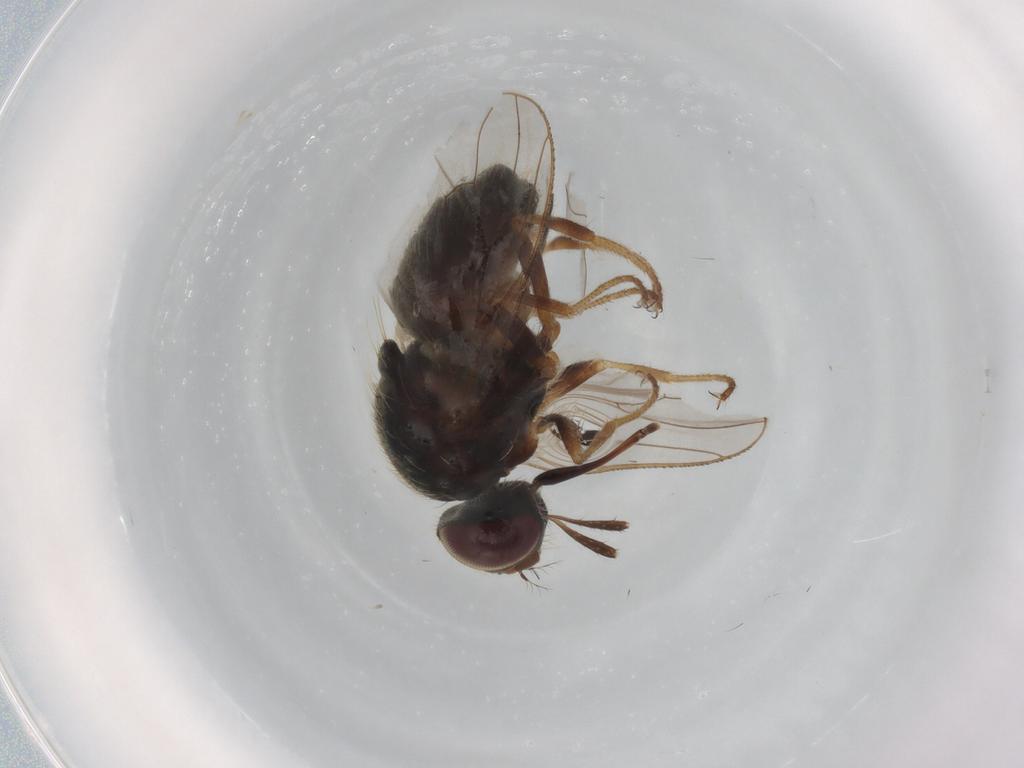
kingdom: Animalia
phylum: Arthropoda
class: Insecta
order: Diptera
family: Muscidae
